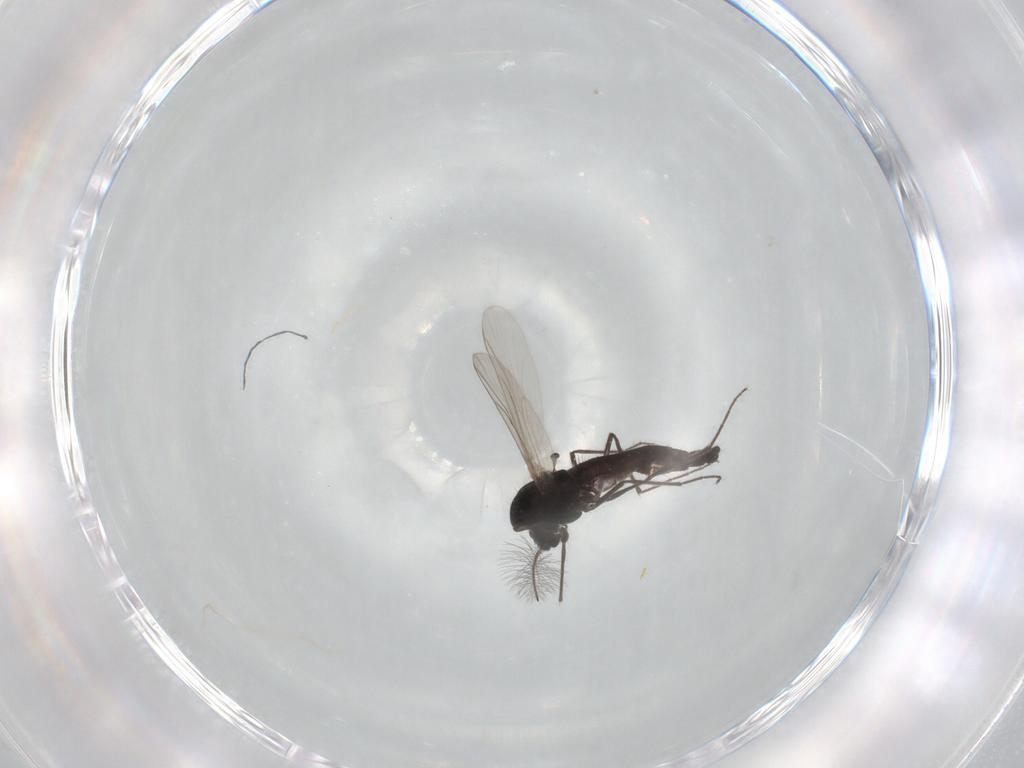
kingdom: Animalia
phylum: Arthropoda
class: Insecta
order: Diptera
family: Chironomidae
